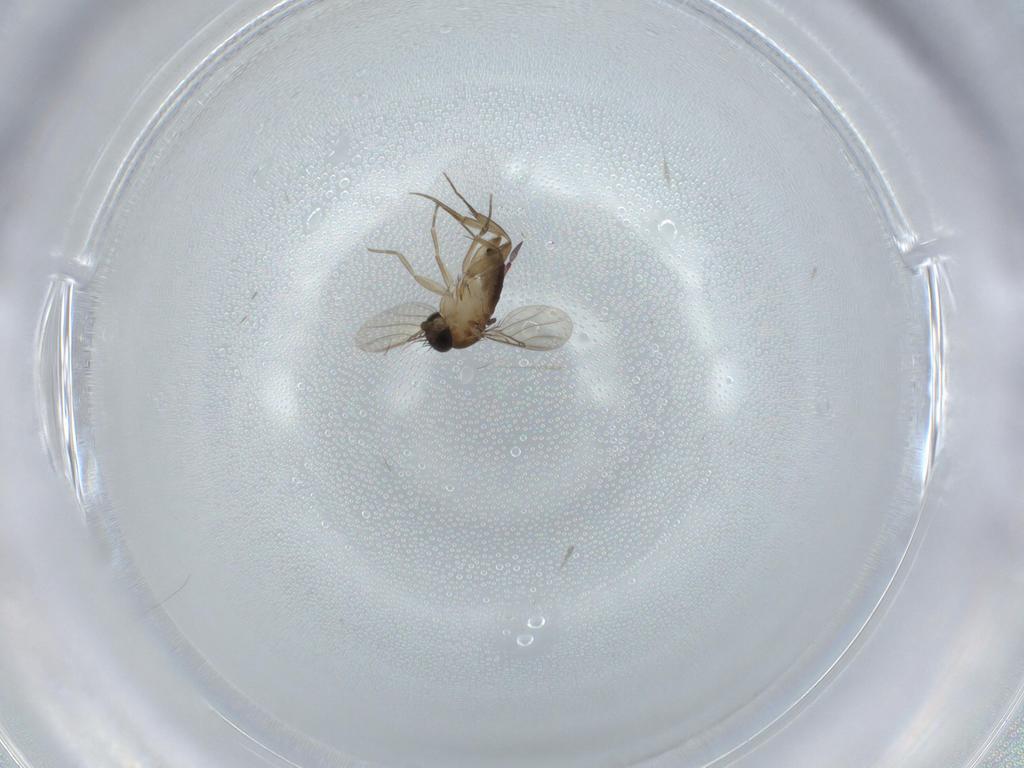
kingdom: Animalia
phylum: Arthropoda
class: Insecta
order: Diptera
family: Phoridae
